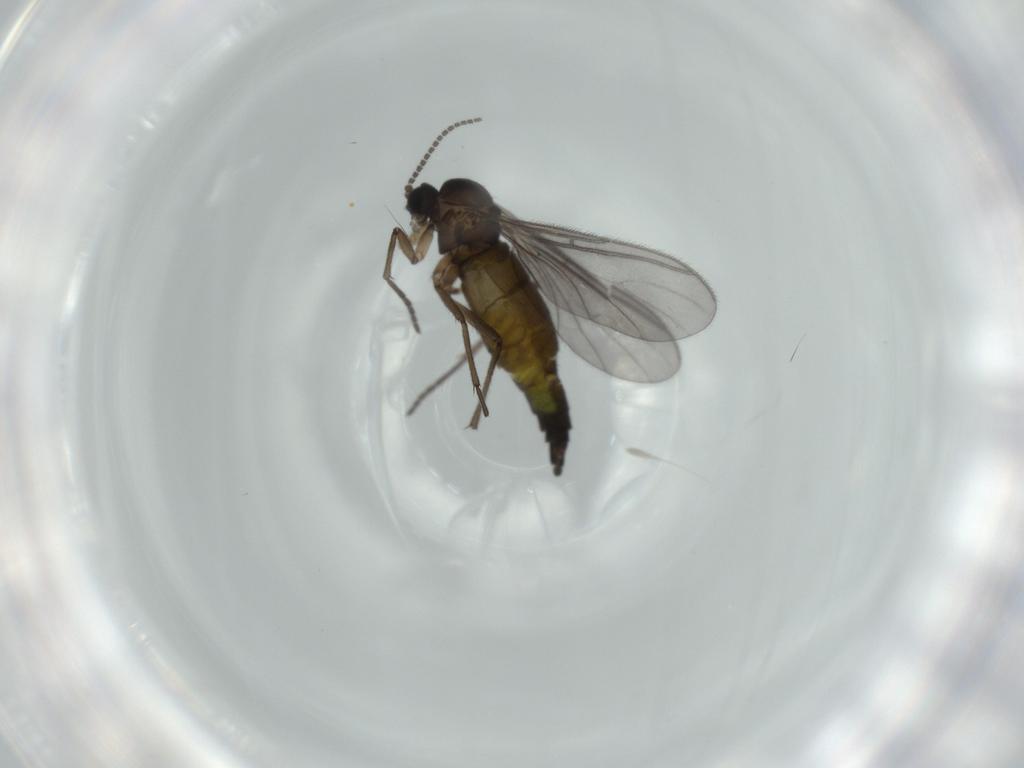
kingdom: Animalia
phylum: Arthropoda
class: Insecta
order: Diptera
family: Sciaridae
